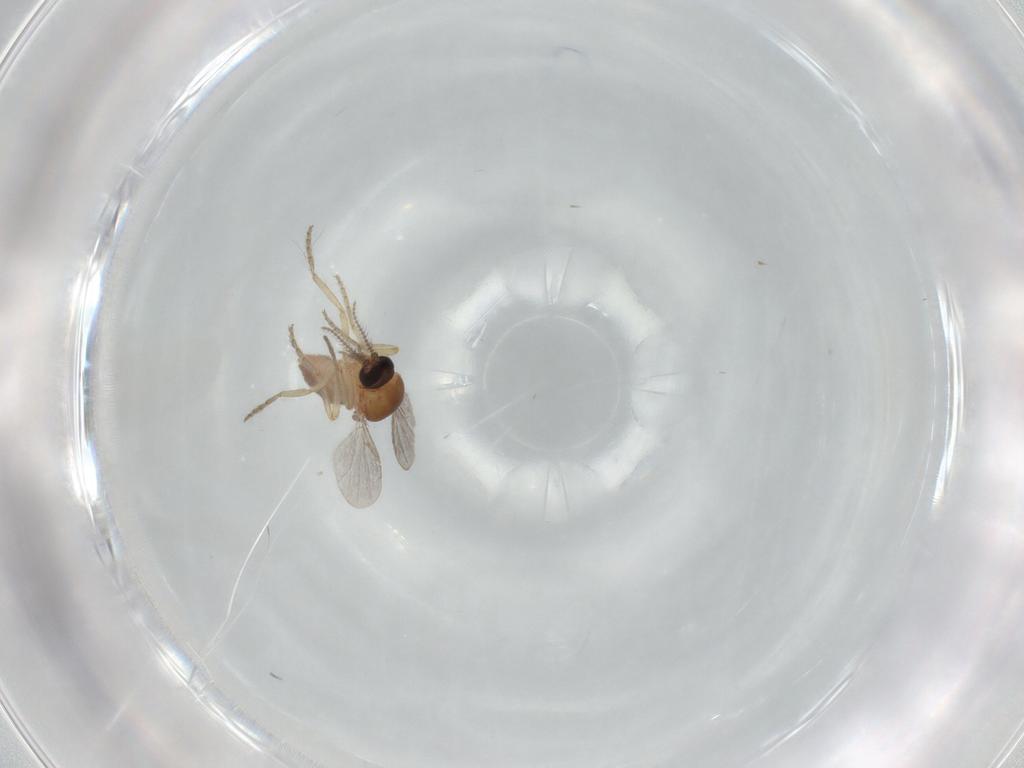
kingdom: Animalia
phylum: Arthropoda
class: Insecta
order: Diptera
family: Ceratopogonidae
